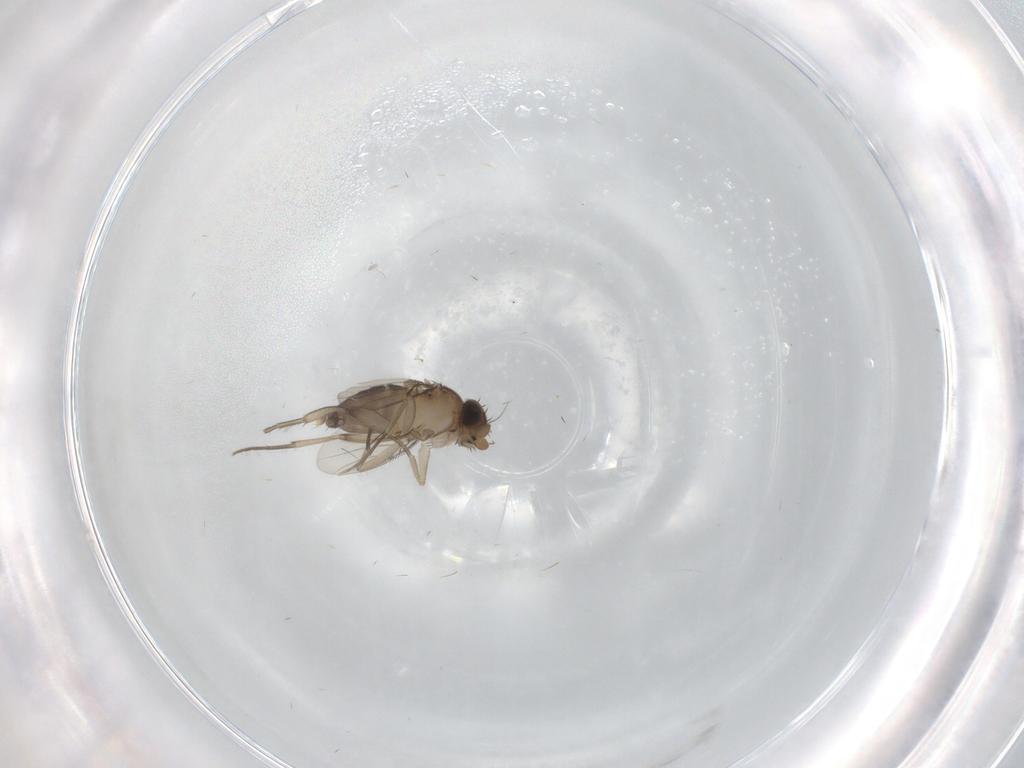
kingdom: Animalia
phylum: Arthropoda
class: Insecta
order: Diptera
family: Phoridae
